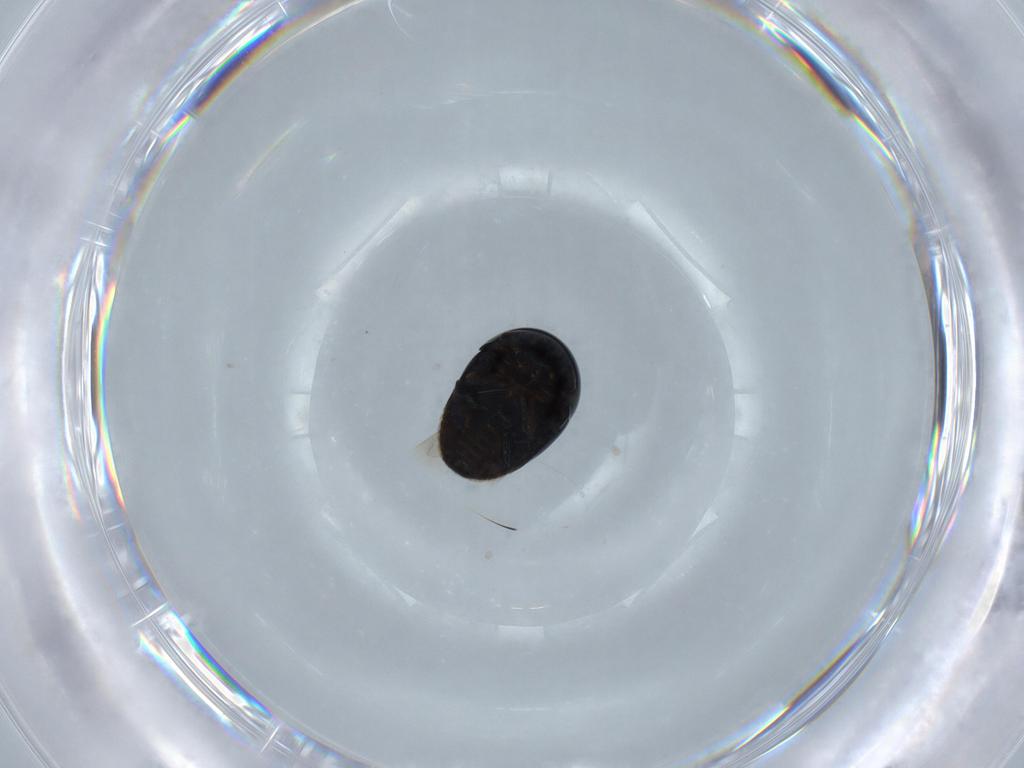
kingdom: Animalia
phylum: Arthropoda
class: Insecta
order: Coleoptera
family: Cybocephalidae
